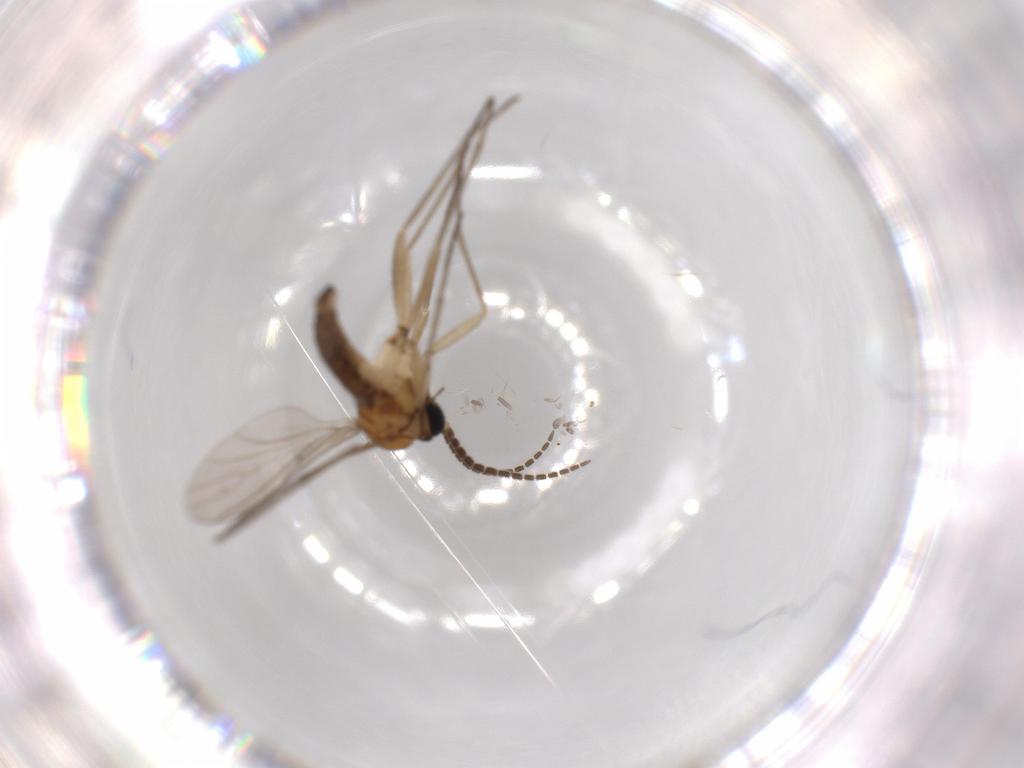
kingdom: Animalia
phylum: Arthropoda
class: Insecta
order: Diptera
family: Sciaridae
